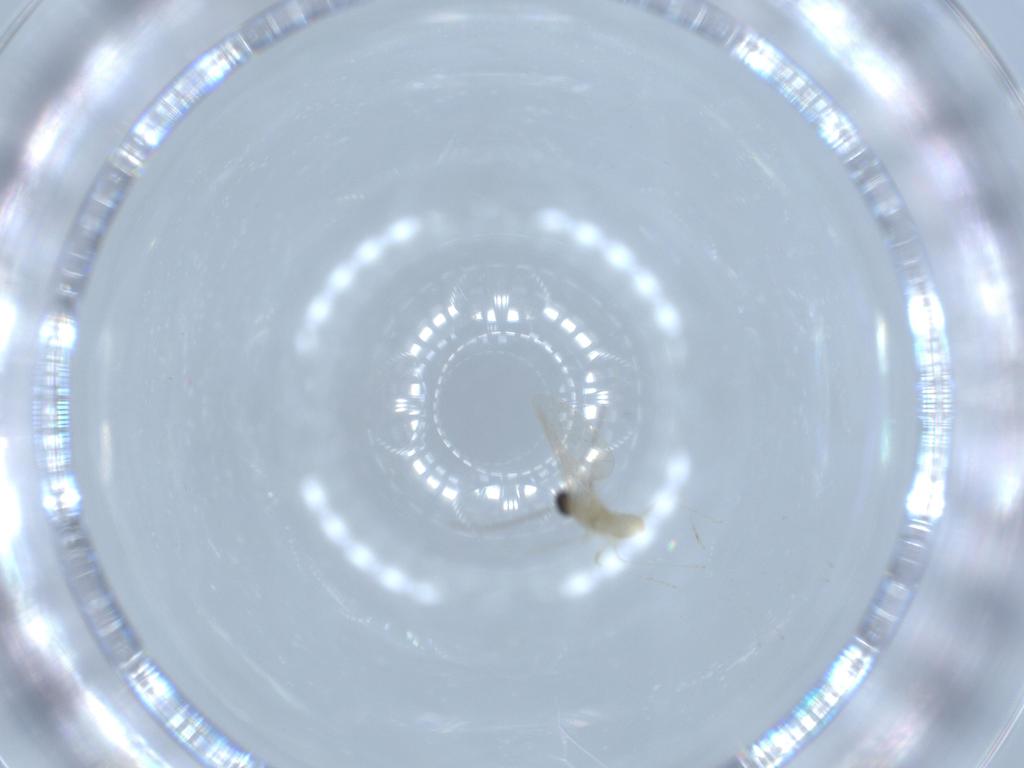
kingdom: Animalia
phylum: Arthropoda
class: Insecta
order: Diptera
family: Cecidomyiidae
